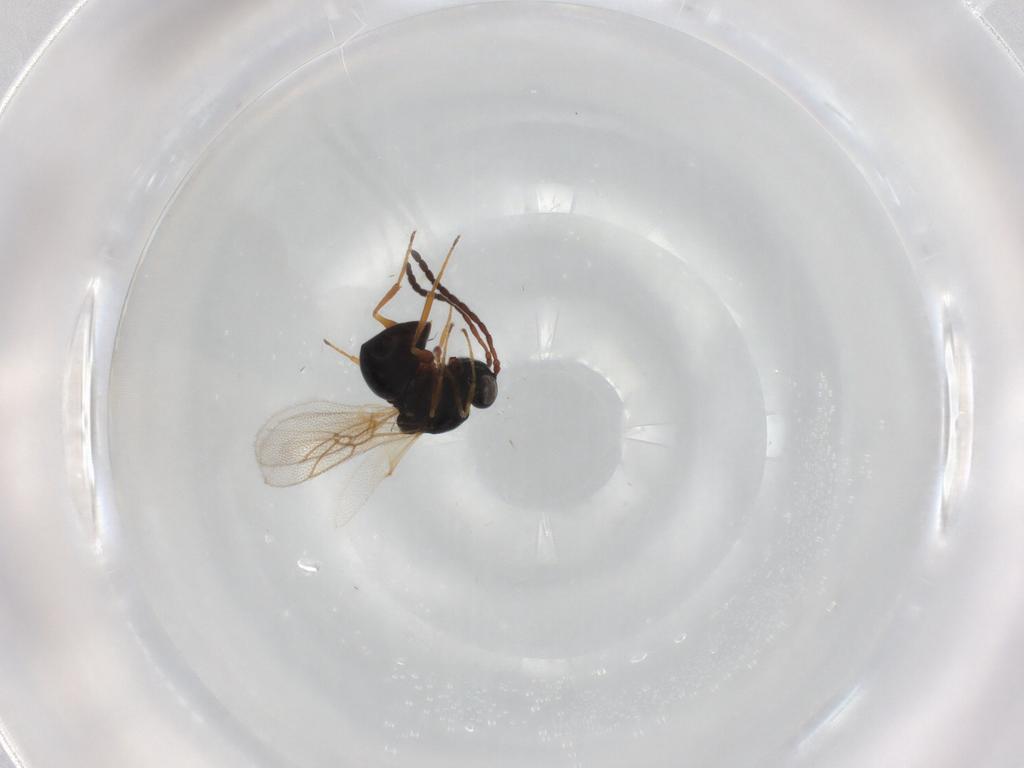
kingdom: Animalia
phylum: Arthropoda
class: Insecta
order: Hymenoptera
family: Figitidae
